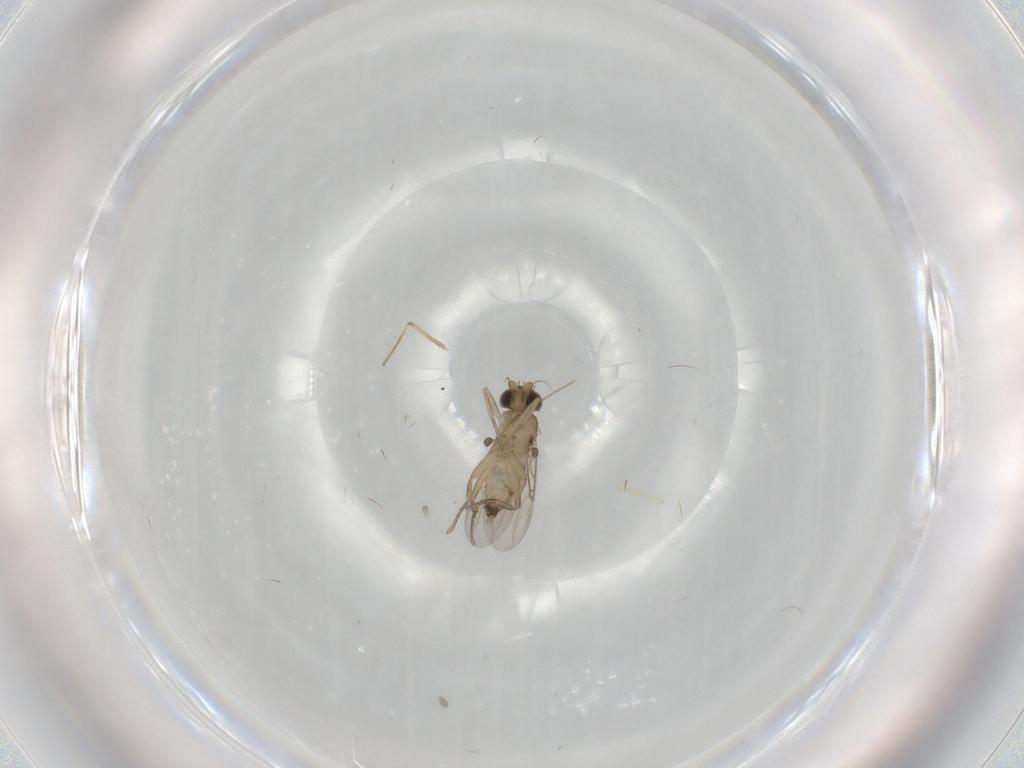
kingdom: Animalia
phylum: Arthropoda
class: Insecta
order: Diptera
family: Phoridae
